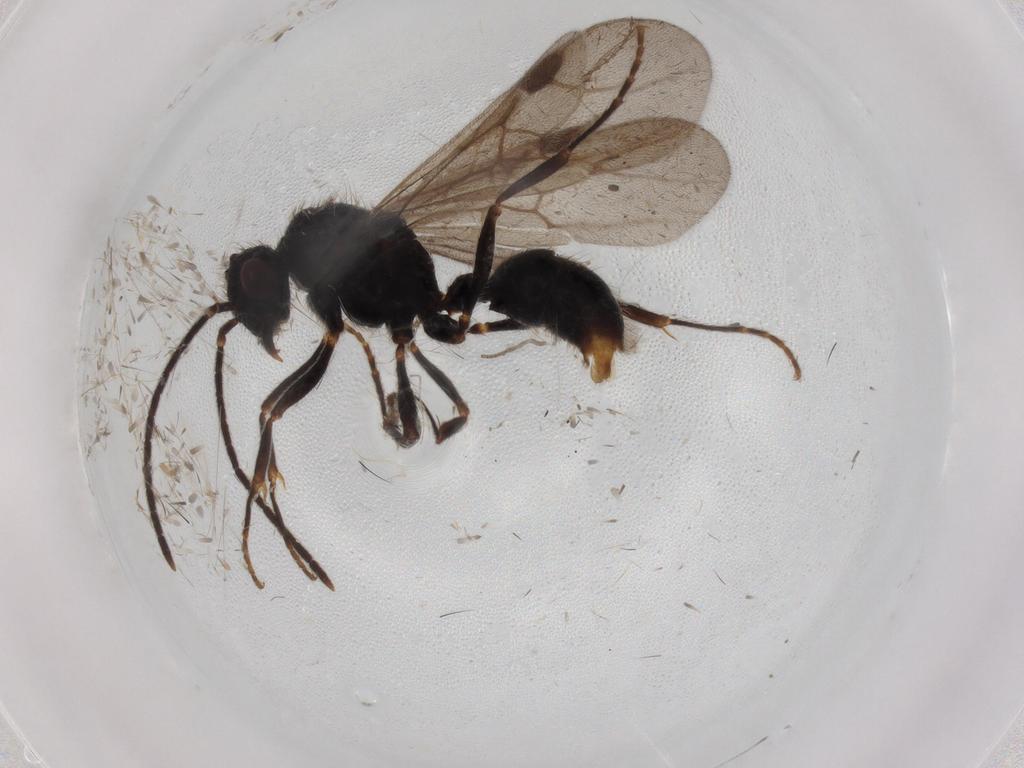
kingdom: Animalia
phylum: Arthropoda
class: Insecta
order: Hymenoptera
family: Formicidae
